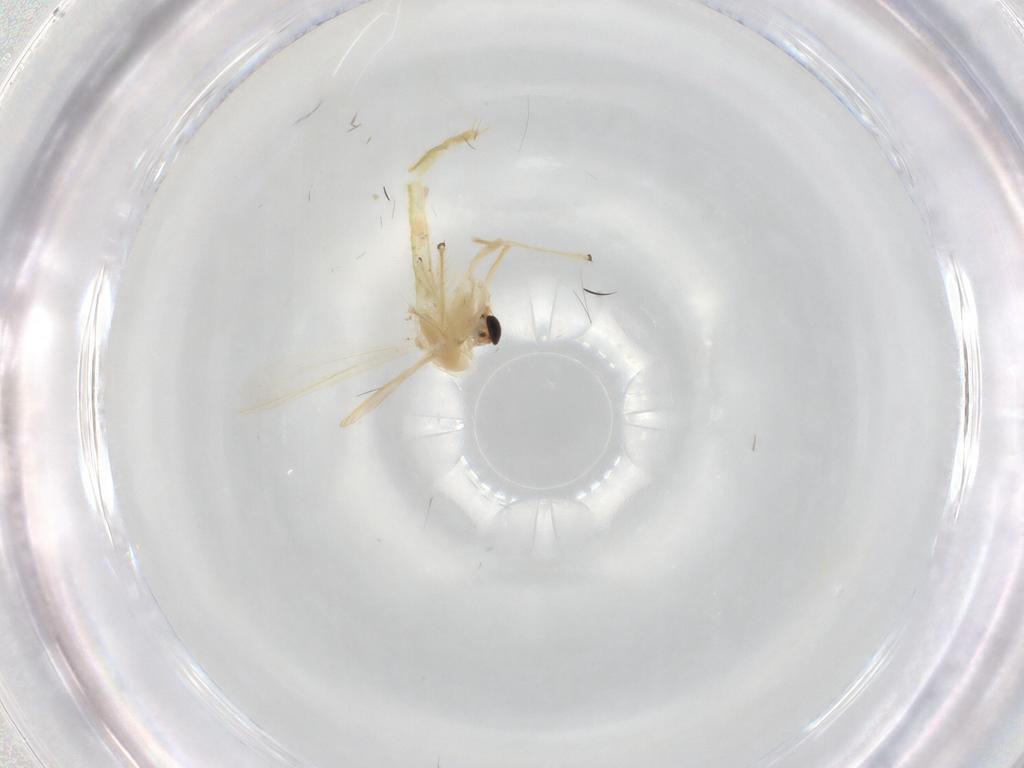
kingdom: Animalia
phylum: Arthropoda
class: Insecta
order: Diptera
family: Chironomidae
